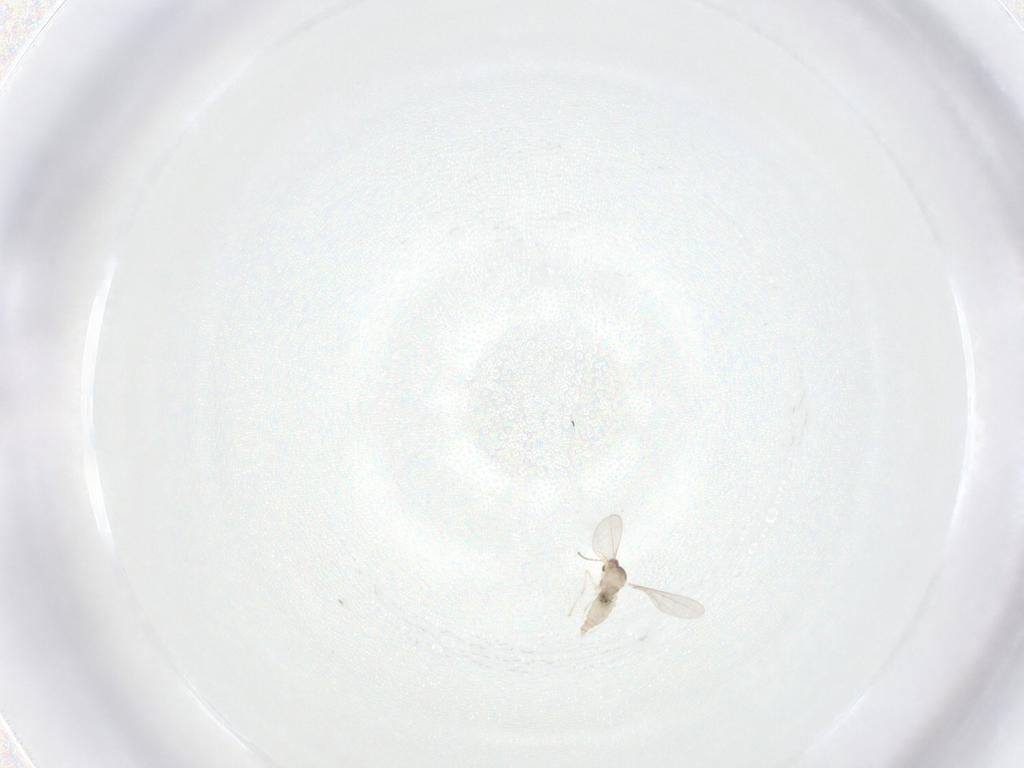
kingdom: Animalia
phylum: Arthropoda
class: Insecta
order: Diptera
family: Cecidomyiidae
